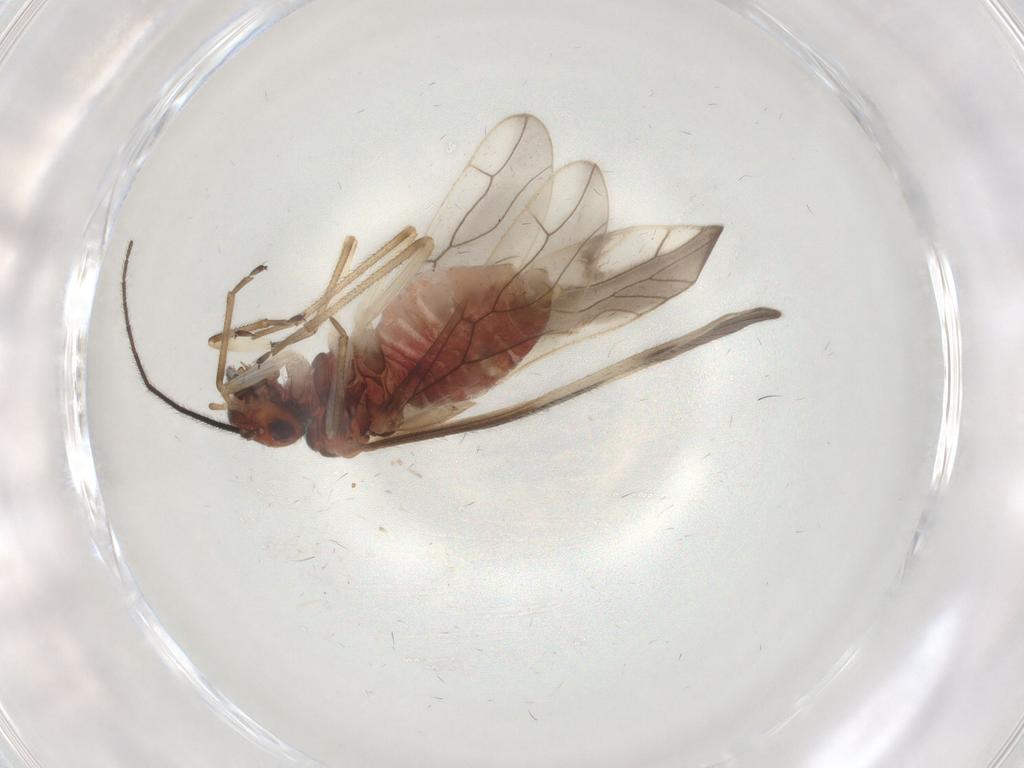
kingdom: Animalia
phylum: Arthropoda
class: Insecta
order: Psocodea
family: Caeciliusidae
